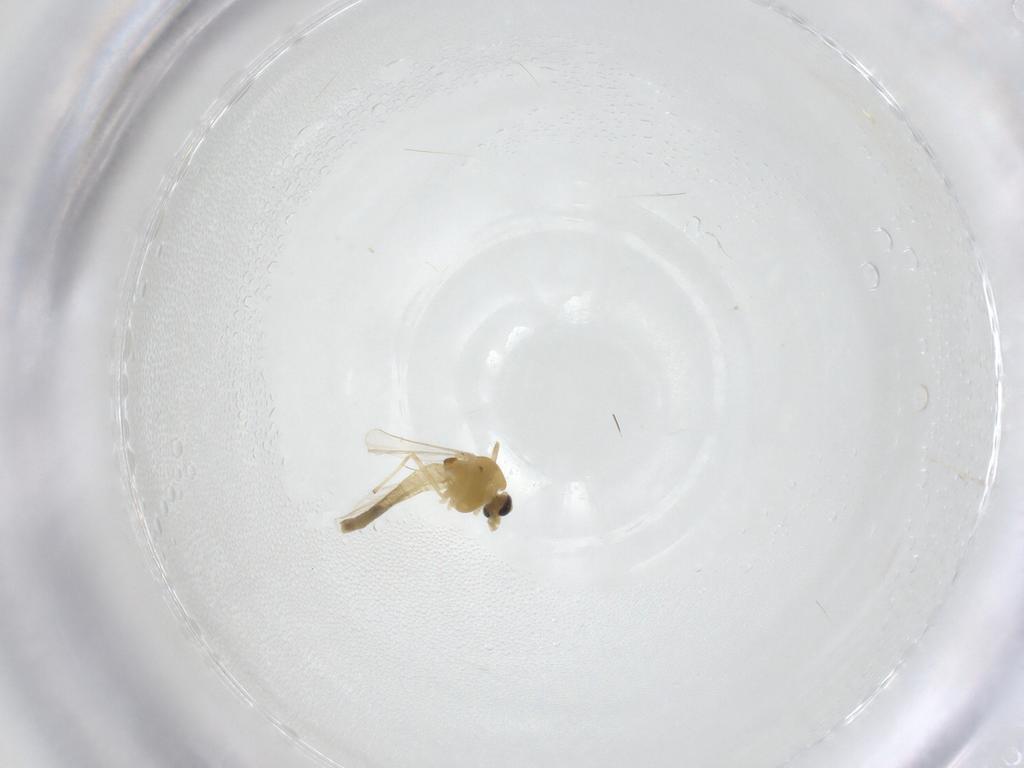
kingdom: Animalia
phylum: Arthropoda
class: Insecta
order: Diptera
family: Chironomidae
